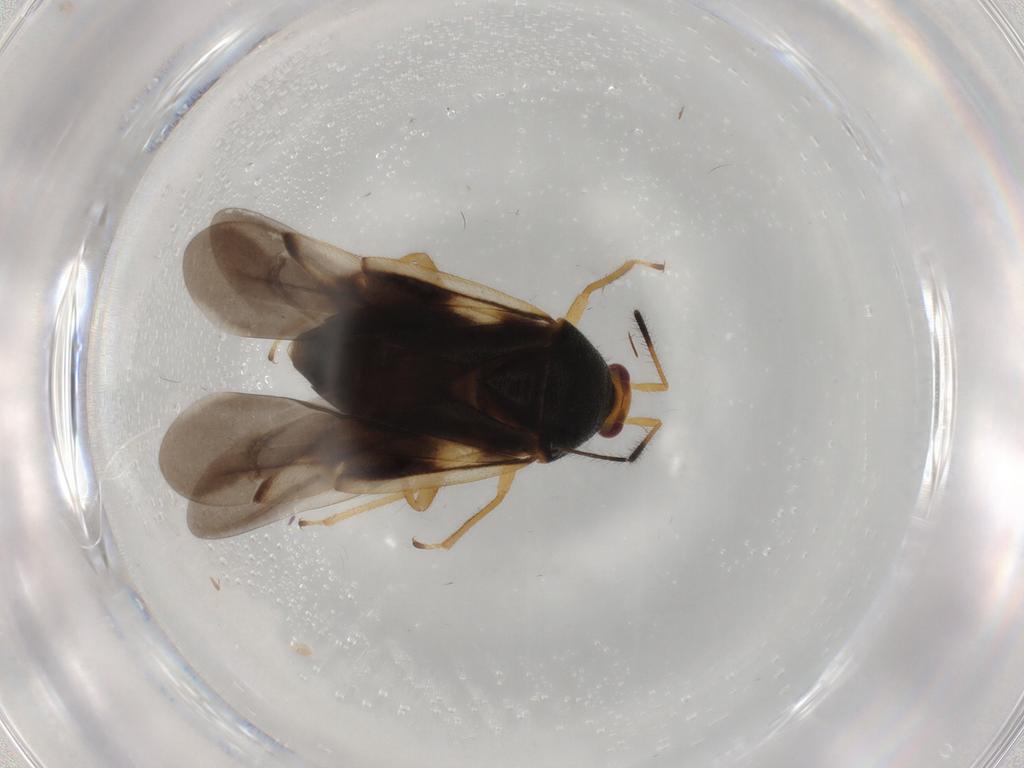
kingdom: Animalia
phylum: Arthropoda
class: Insecta
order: Hemiptera
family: Miridae
